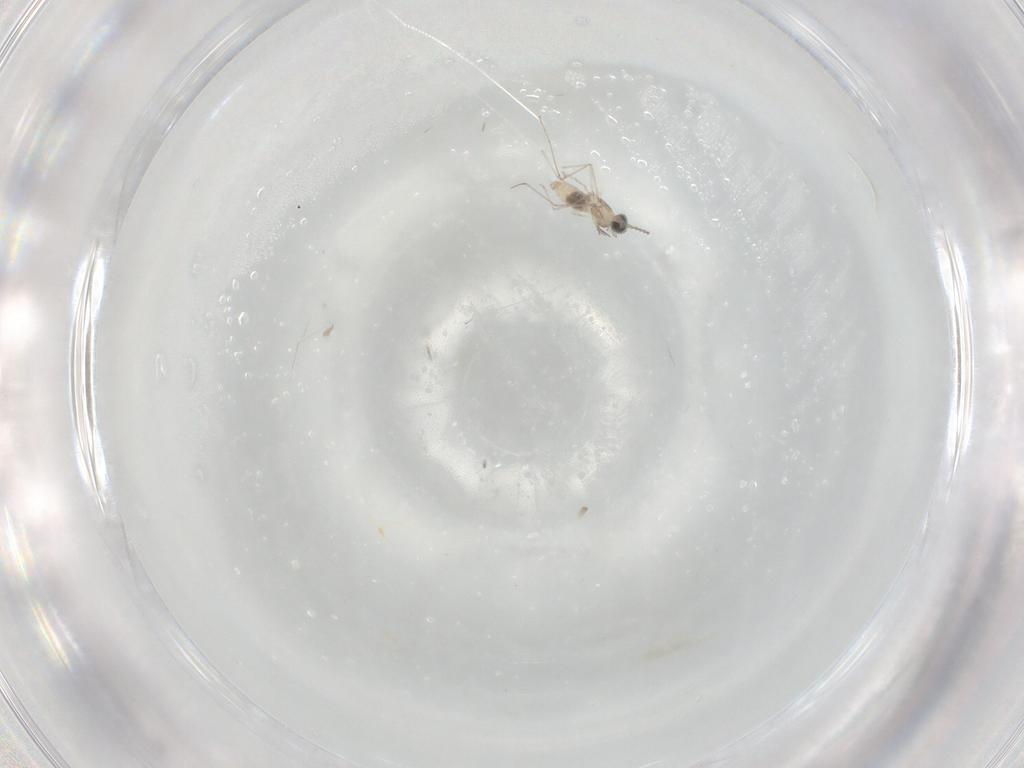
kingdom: Animalia
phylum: Arthropoda
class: Insecta
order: Diptera
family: Cecidomyiidae
